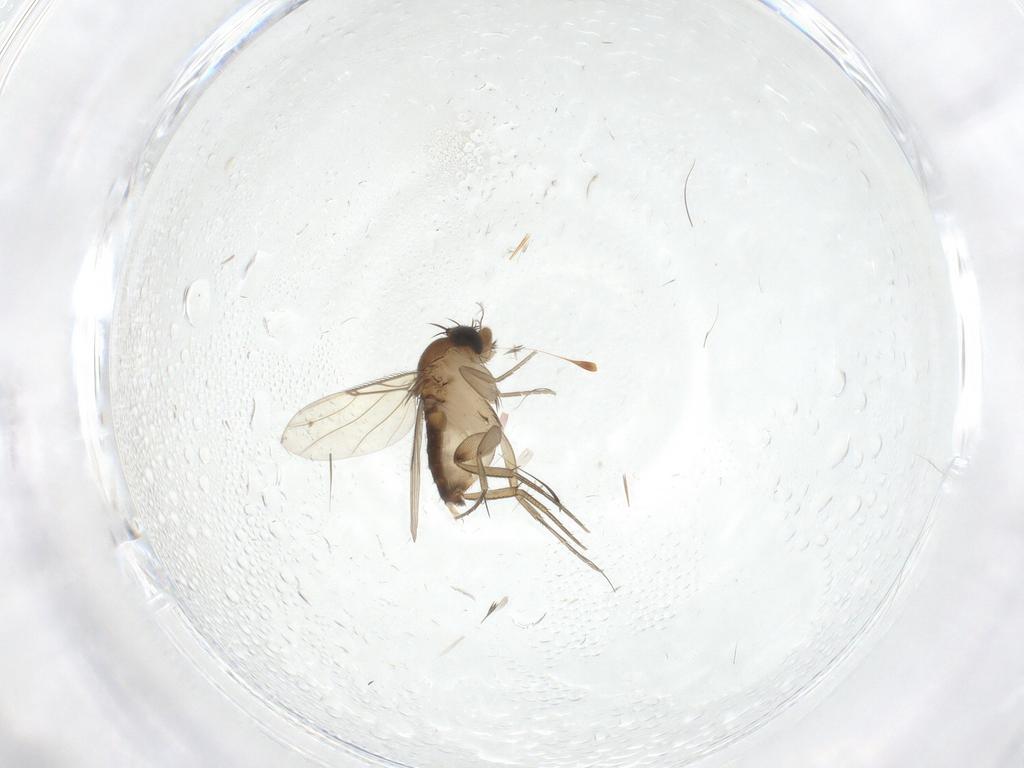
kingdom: Animalia
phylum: Arthropoda
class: Insecta
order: Diptera
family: Phoridae
